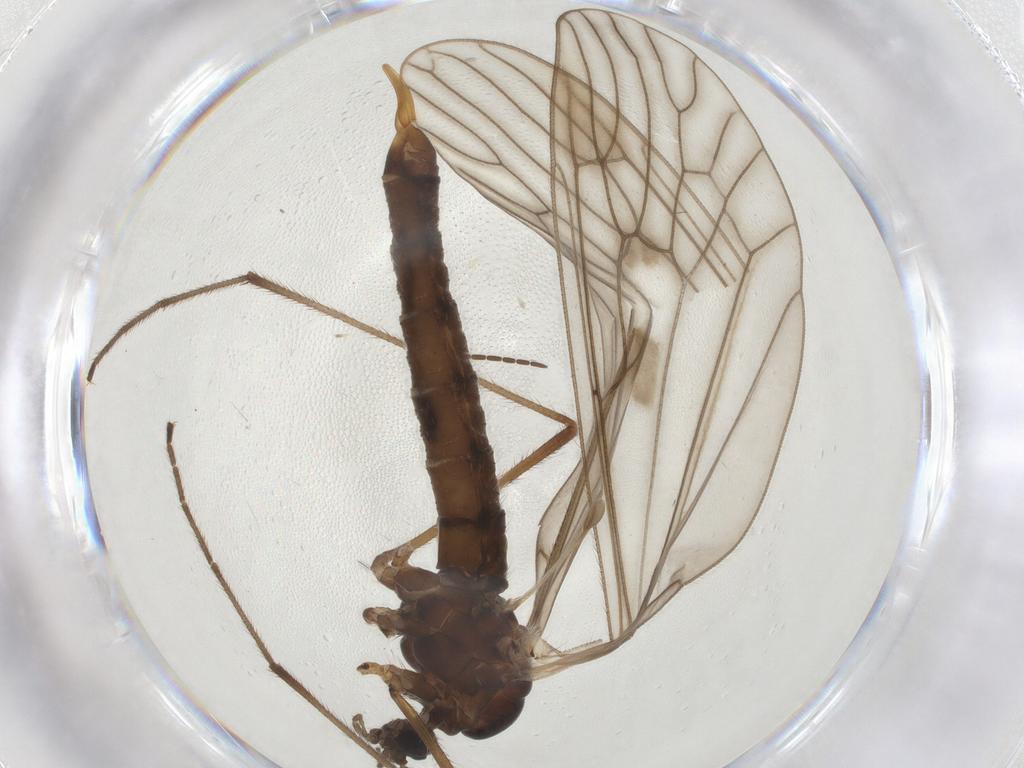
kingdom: Animalia
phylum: Arthropoda
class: Insecta
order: Diptera
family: Trichoceridae
